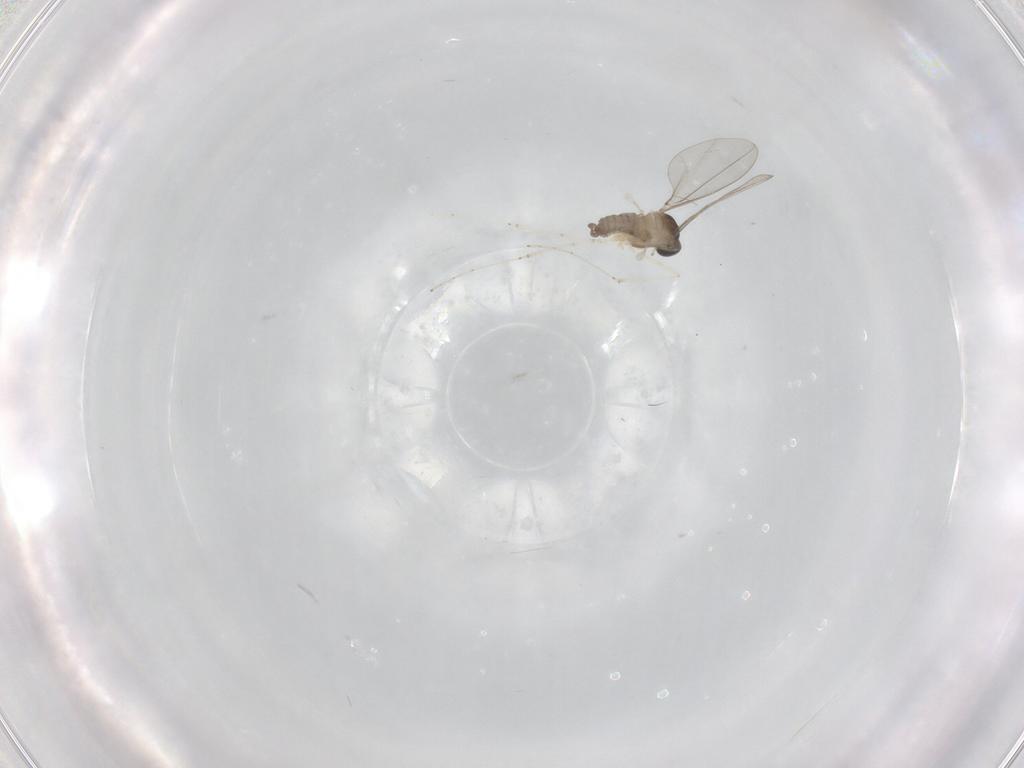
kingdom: Animalia
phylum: Arthropoda
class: Insecta
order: Diptera
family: Cecidomyiidae
